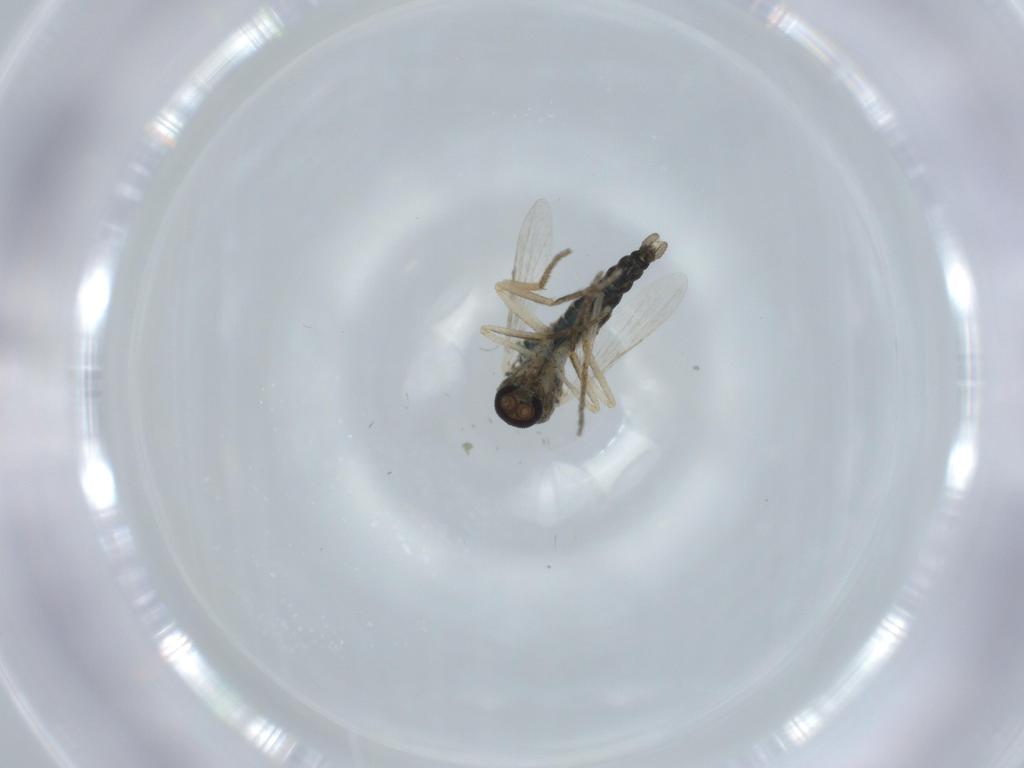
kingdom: Animalia
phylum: Arthropoda
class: Insecta
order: Diptera
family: Ceratopogonidae
